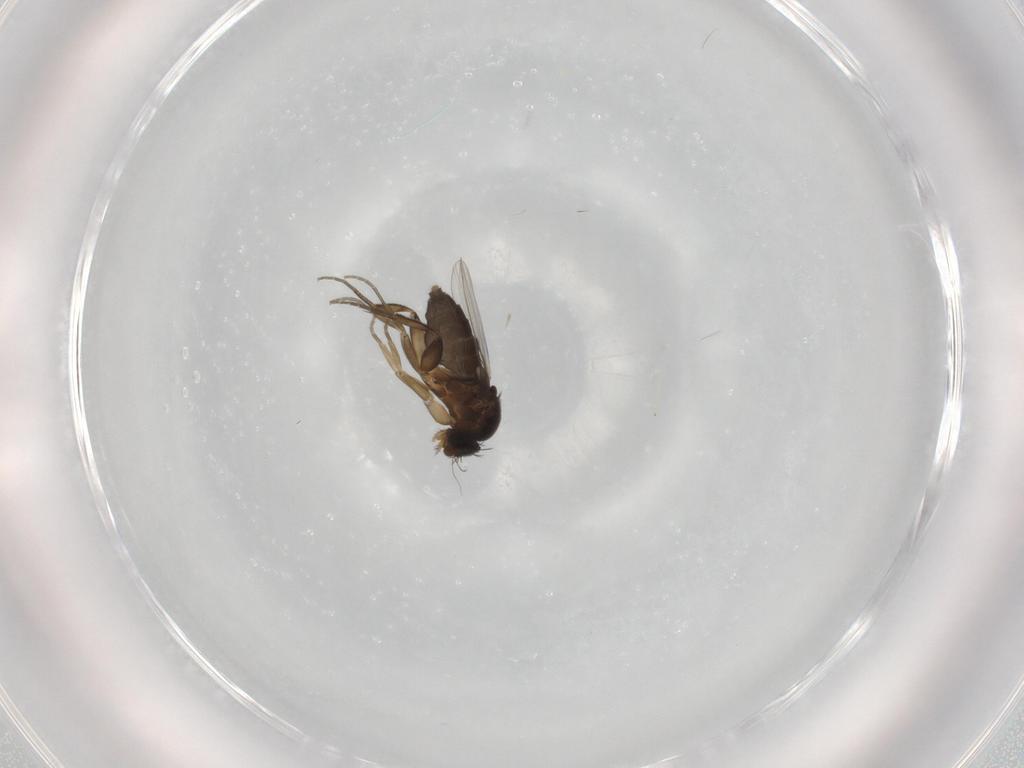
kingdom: Animalia
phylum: Arthropoda
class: Insecta
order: Diptera
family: Phoridae
